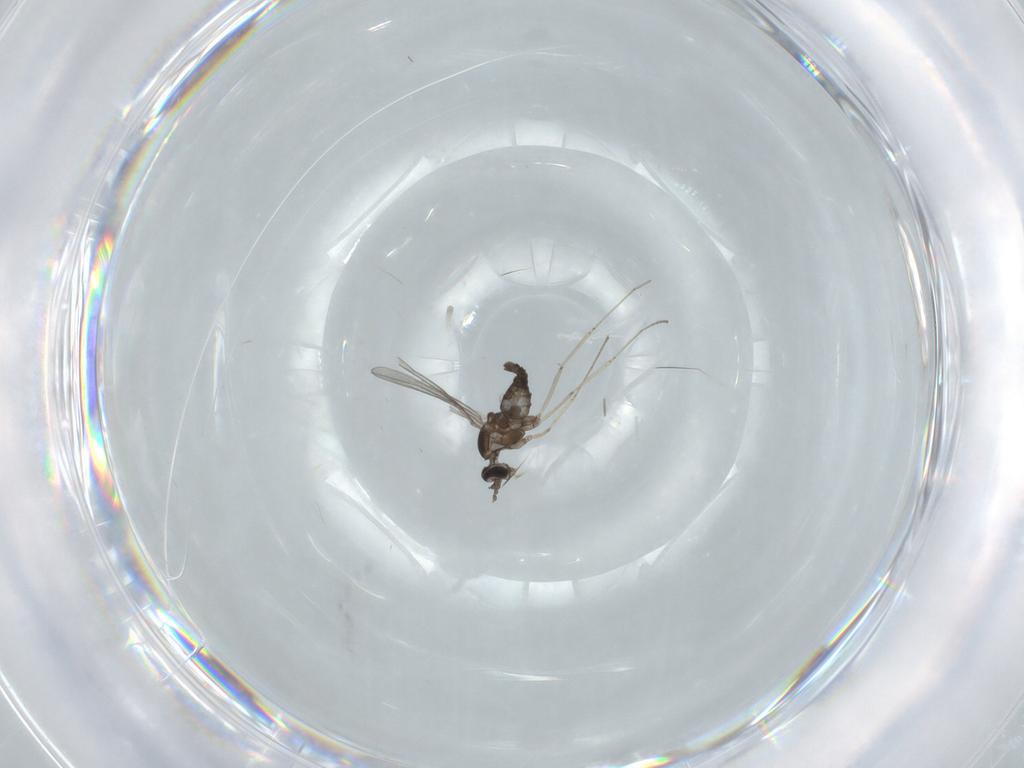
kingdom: Animalia
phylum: Arthropoda
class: Insecta
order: Diptera
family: Cecidomyiidae
